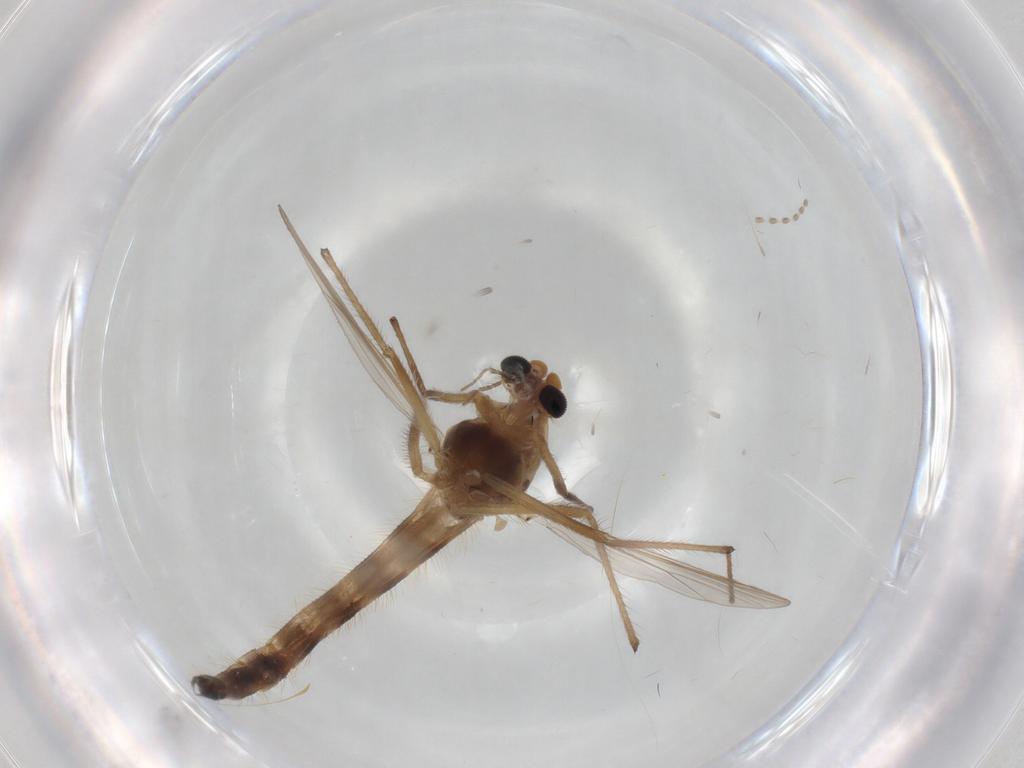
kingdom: Animalia
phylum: Arthropoda
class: Insecta
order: Diptera
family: Chironomidae
